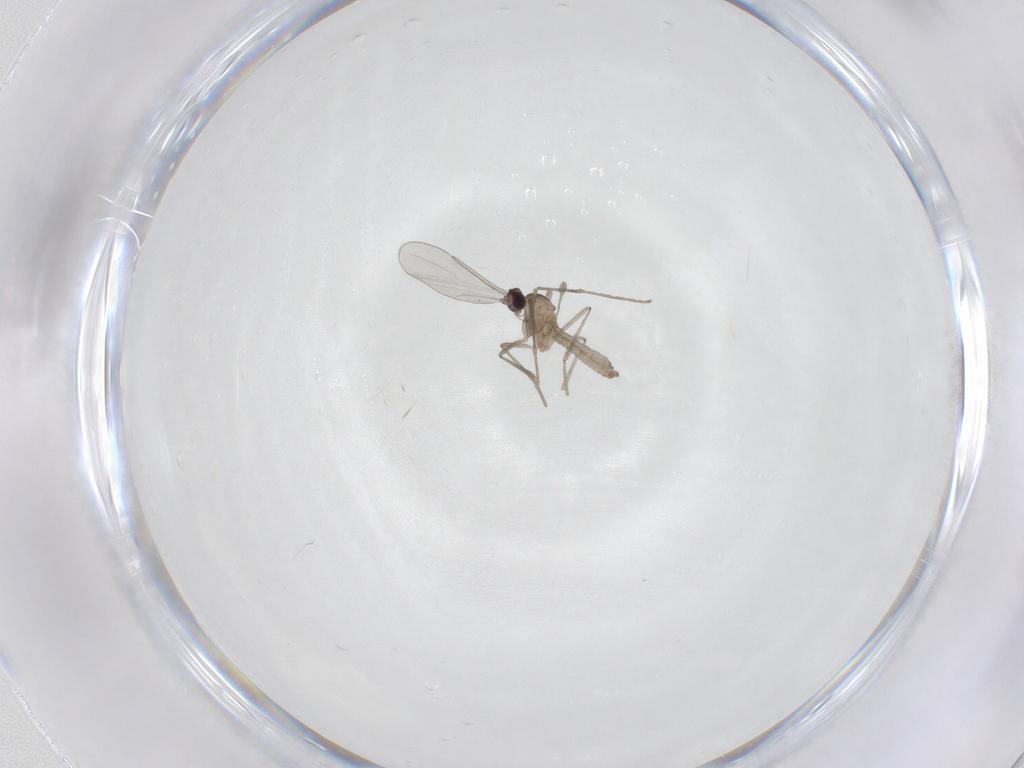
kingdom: Animalia
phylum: Arthropoda
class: Insecta
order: Diptera
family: Cecidomyiidae
